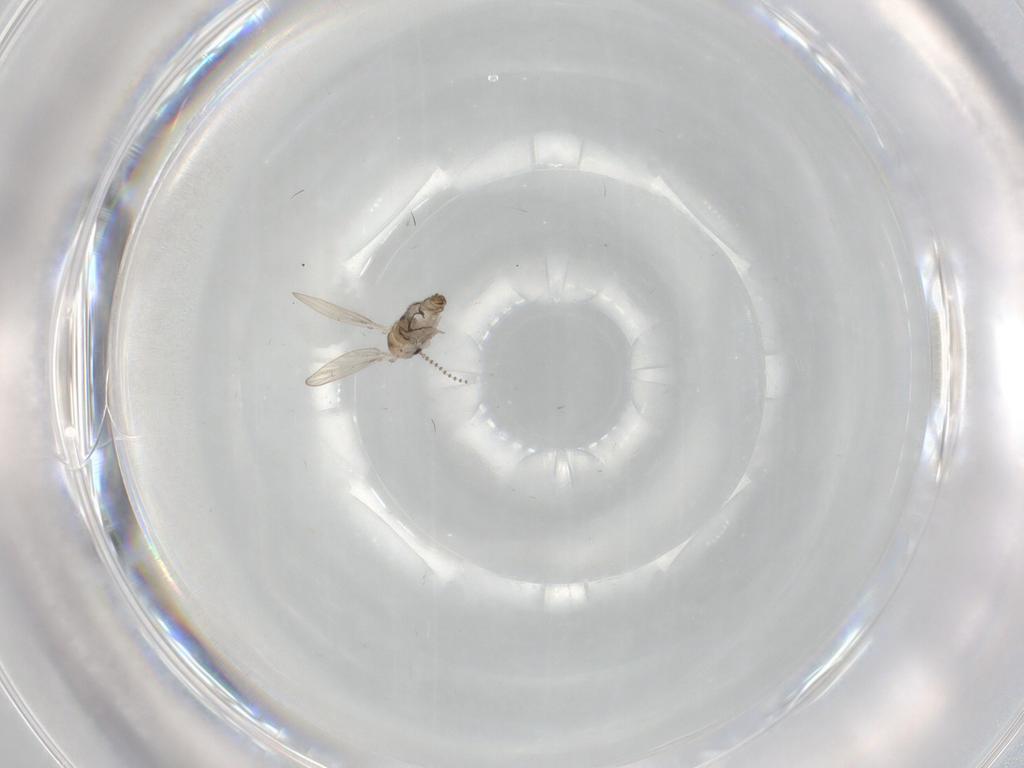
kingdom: Animalia
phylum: Arthropoda
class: Insecta
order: Diptera
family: Psychodidae
